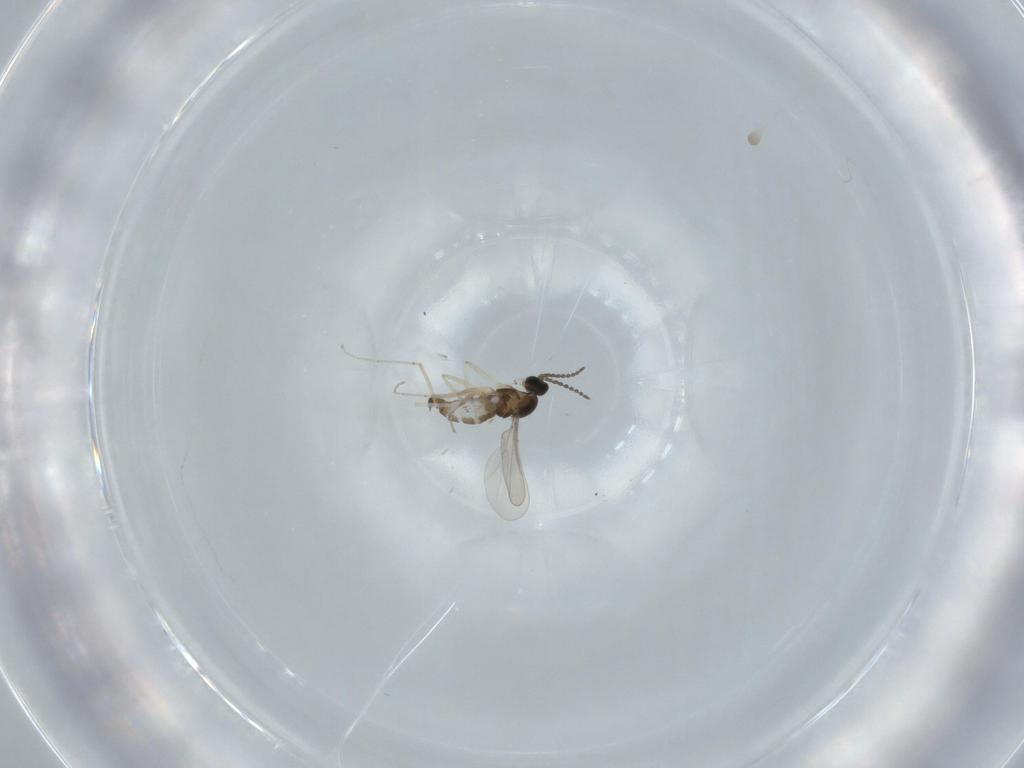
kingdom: Animalia
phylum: Arthropoda
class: Insecta
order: Diptera
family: Cecidomyiidae
